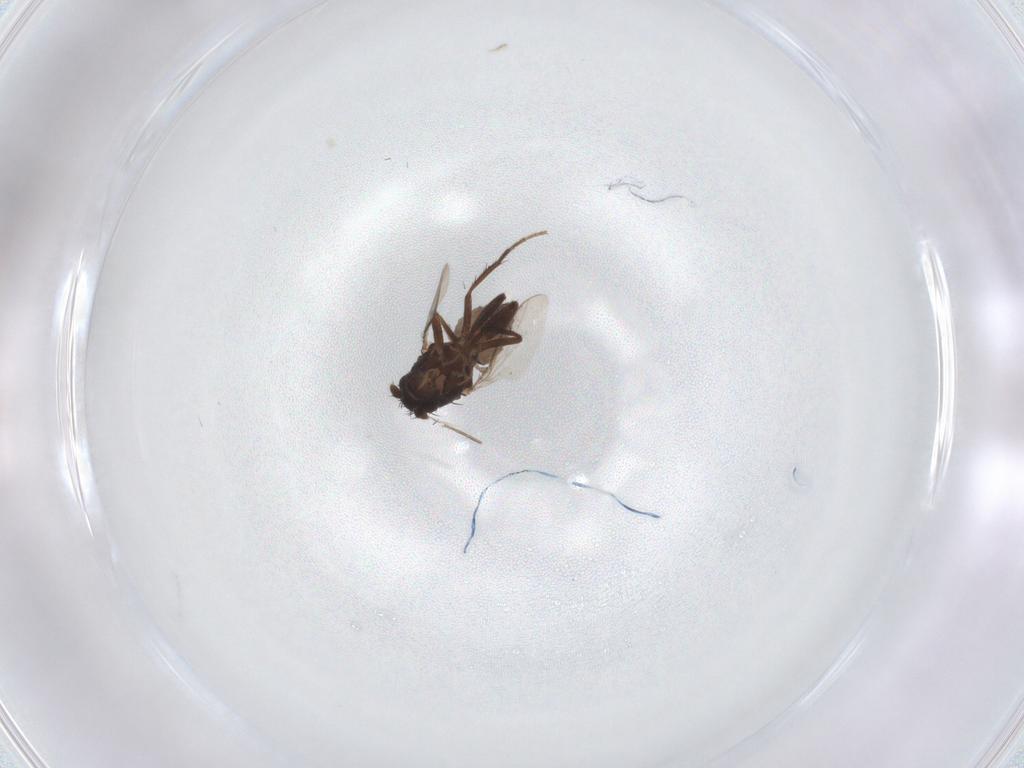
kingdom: Animalia
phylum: Arthropoda
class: Insecta
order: Diptera
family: Sphaeroceridae
